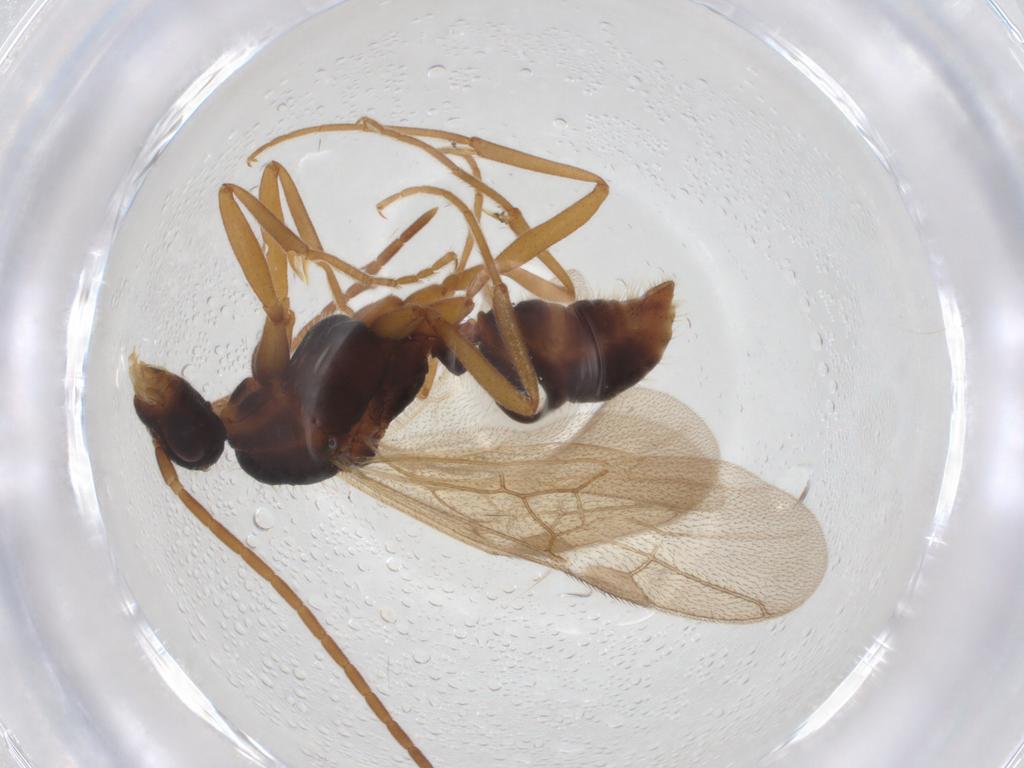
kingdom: Animalia
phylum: Arthropoda
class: Insecta
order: Hymenoptera
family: Formicidae
